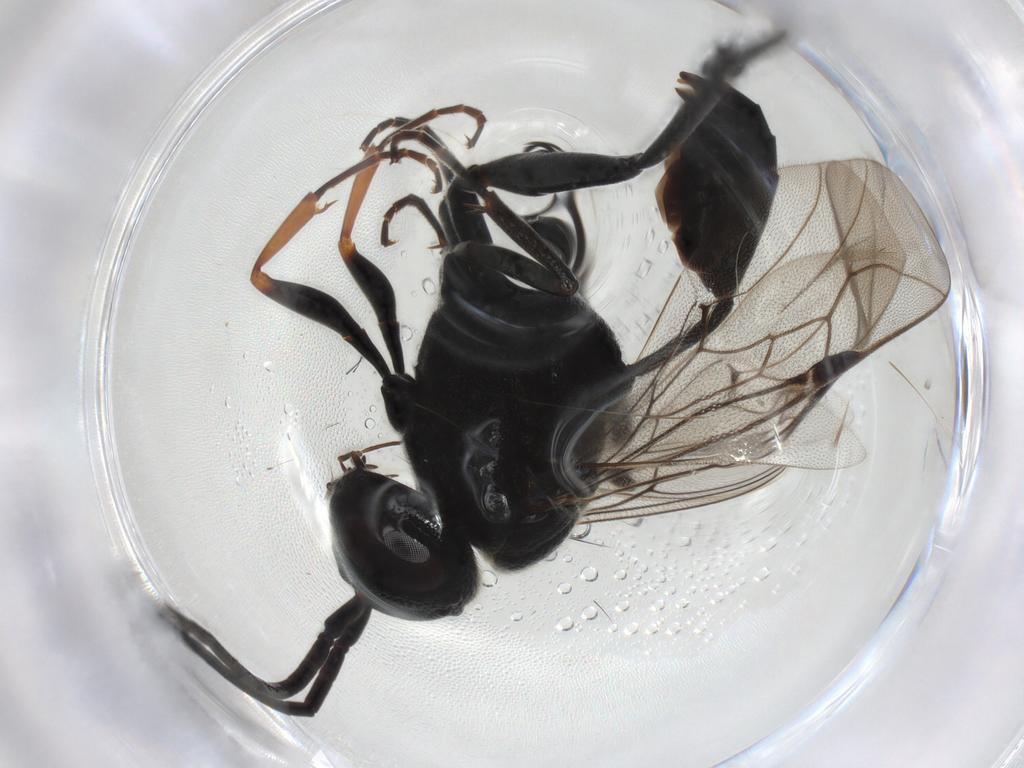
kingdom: Animalia
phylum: Arthropoda
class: Insecta
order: Hymenoptera
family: Evaniidae
